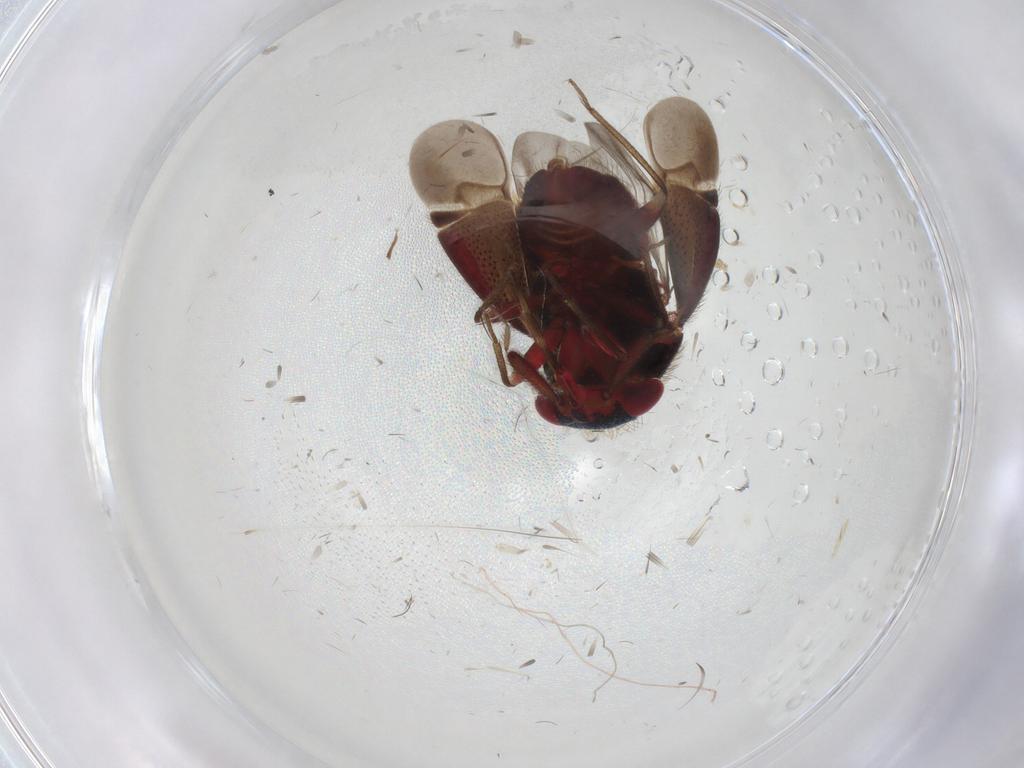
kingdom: Animalia
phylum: Arthropoda
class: Insecta
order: Hemiptera
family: Miridae
